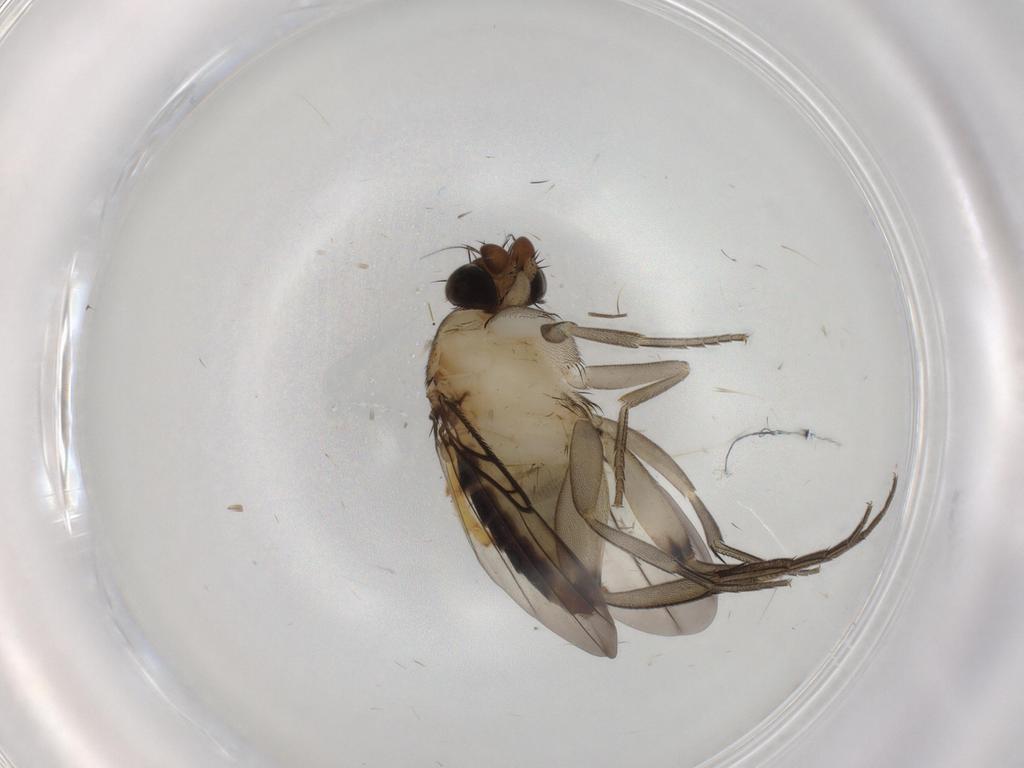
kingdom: Animalia
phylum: Arthropoda
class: Insecta
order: Diptera
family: Phoridae
